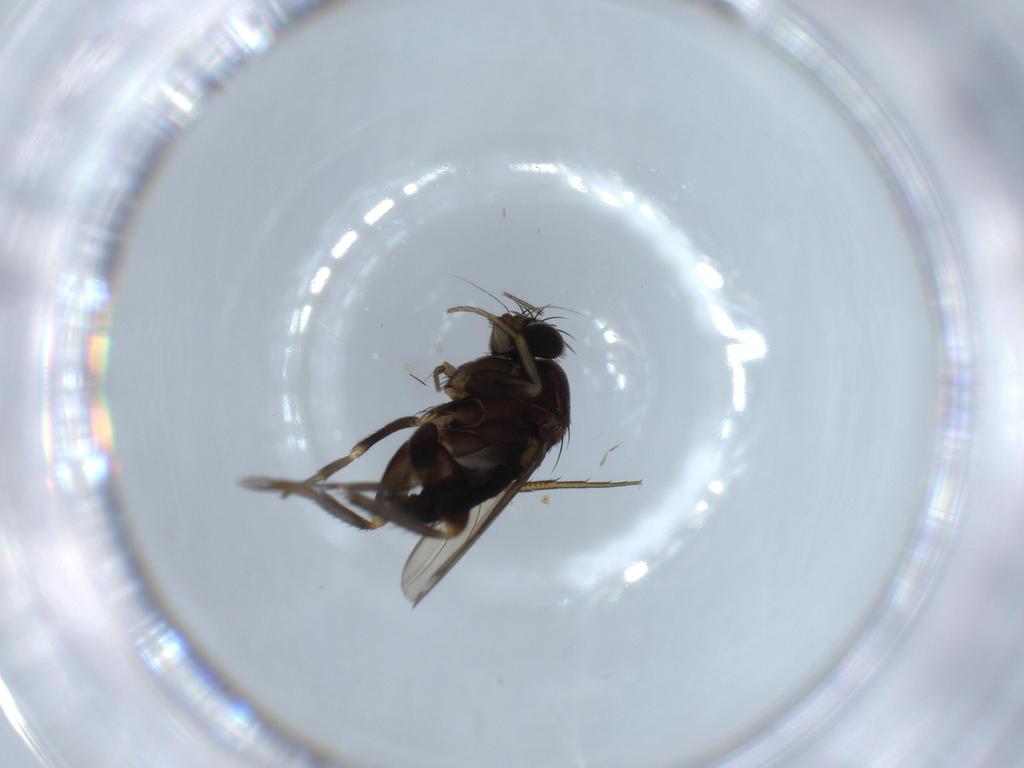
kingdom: Animalia
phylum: Arthropoda
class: Insecta
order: Diptera
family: Phoridae
